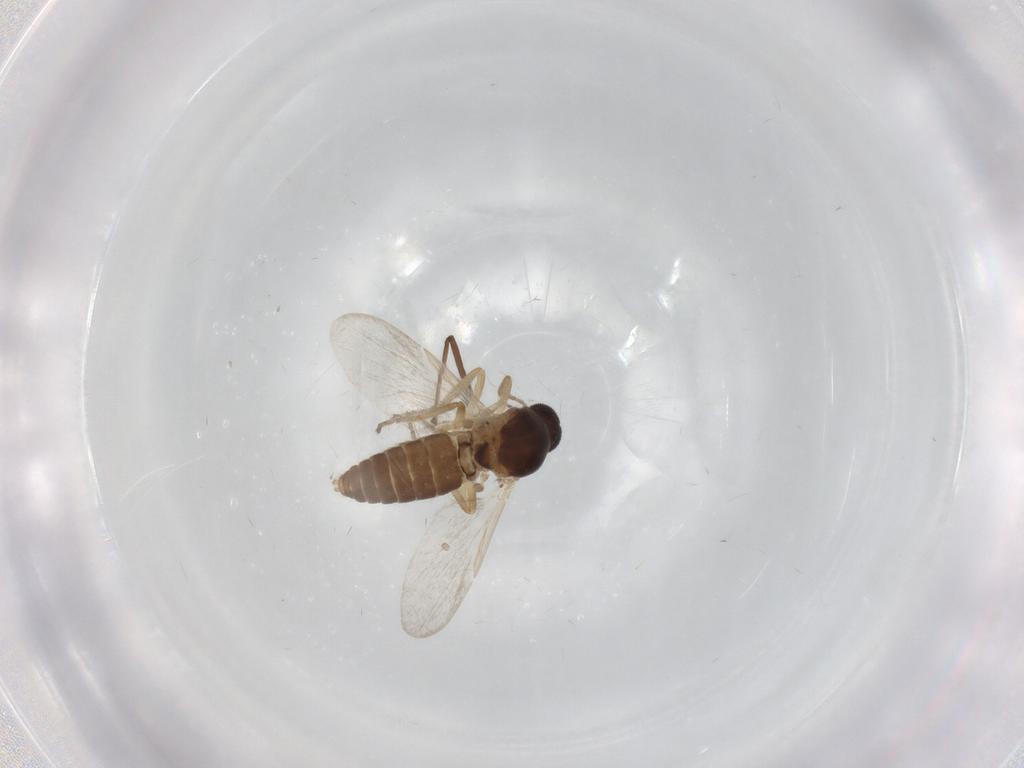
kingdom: Animalia
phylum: Arthropoda
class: Insecta
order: Diptera
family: Ceratopogonidae
